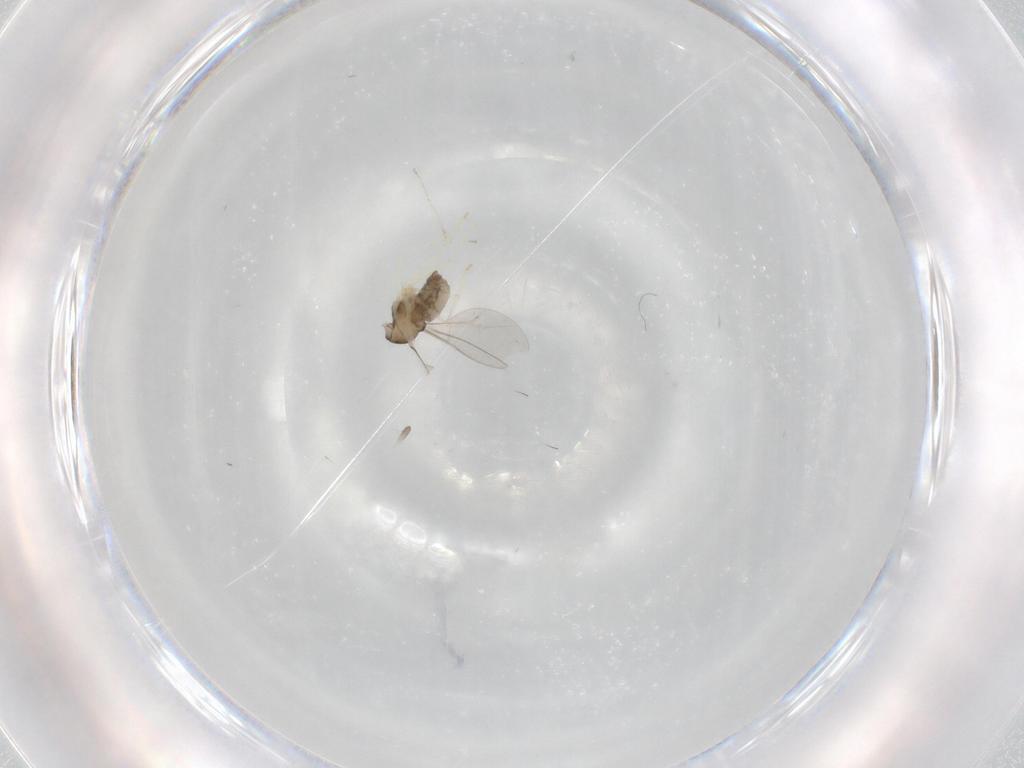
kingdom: Animalia
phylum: Arthropoda
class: Insecta
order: Diptera
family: Cecidomyiidae
